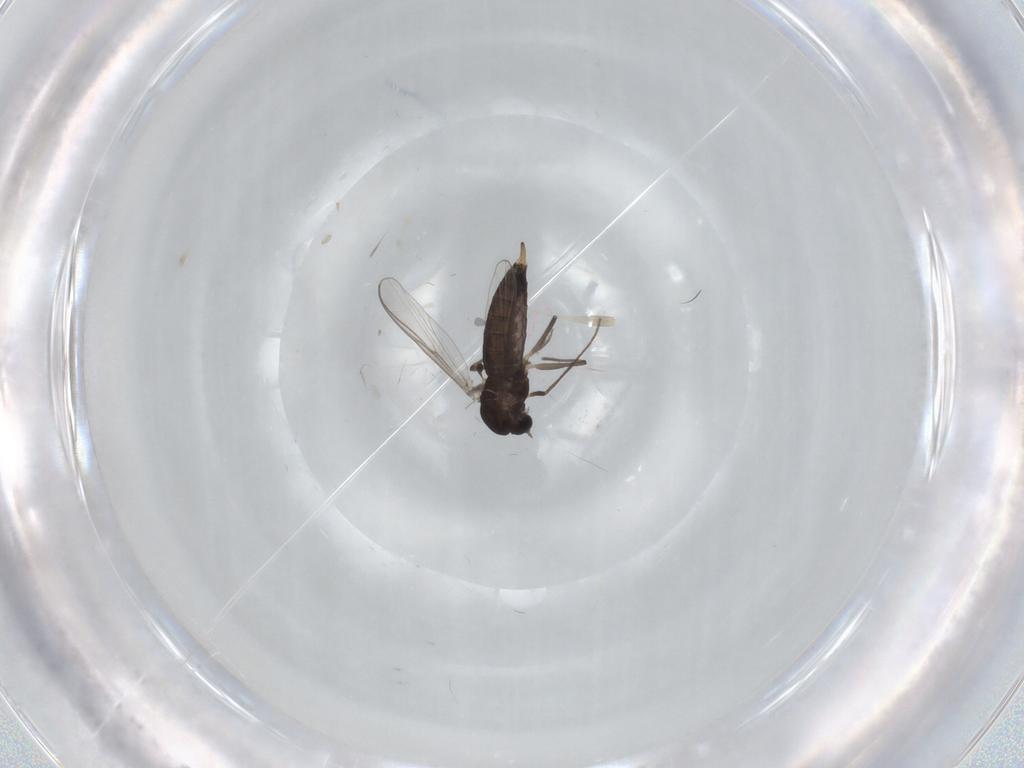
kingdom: Animalia
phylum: Arthropoda
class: Insecta
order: Diptera
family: Chironomidae
